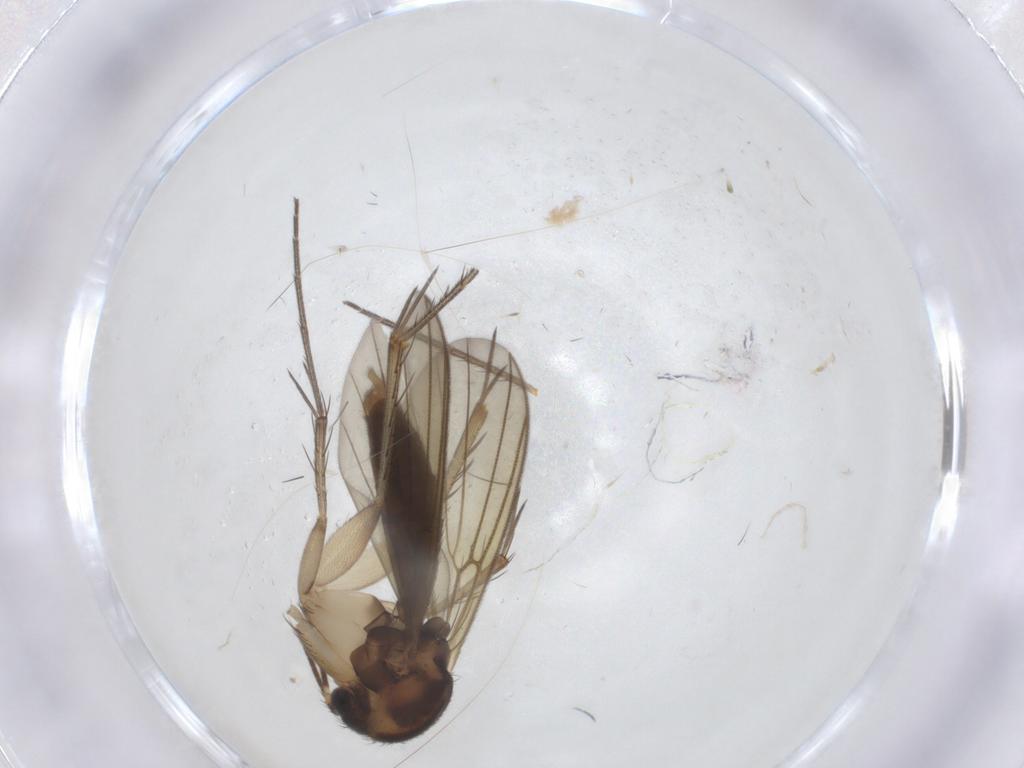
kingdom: Animalia
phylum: Arthropoda
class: Insecta
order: Diptera
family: Mycetophilidae
